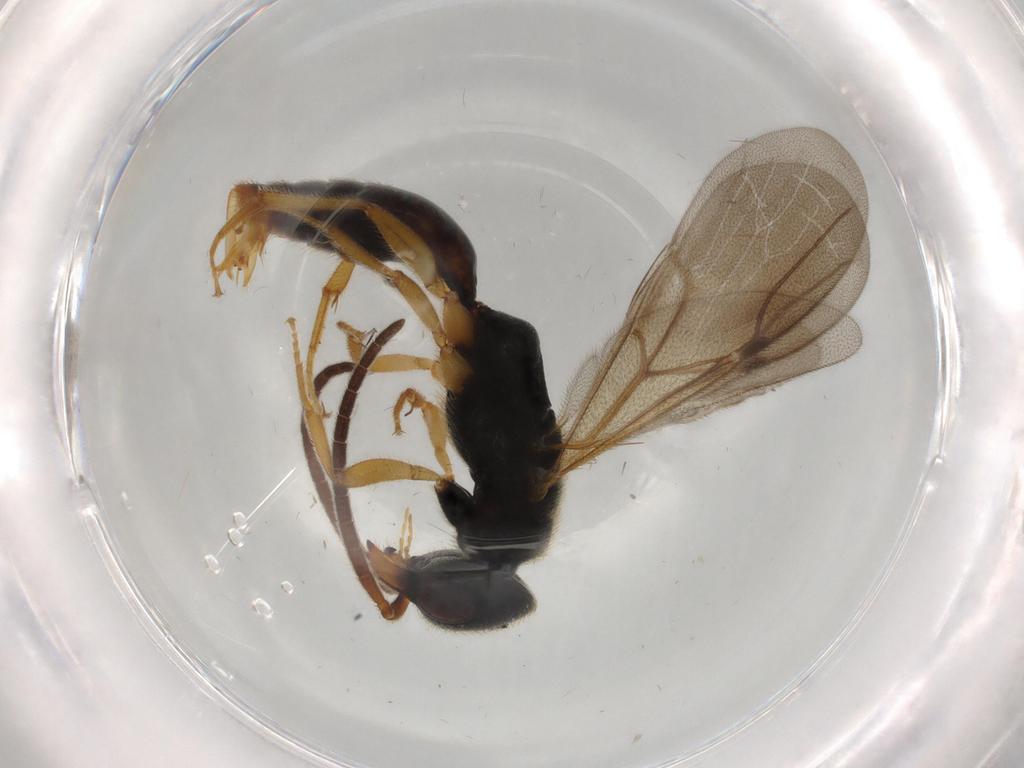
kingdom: Animalia
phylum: Arthropoda
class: Insecta
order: Hymenoptera
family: Bethylidae
